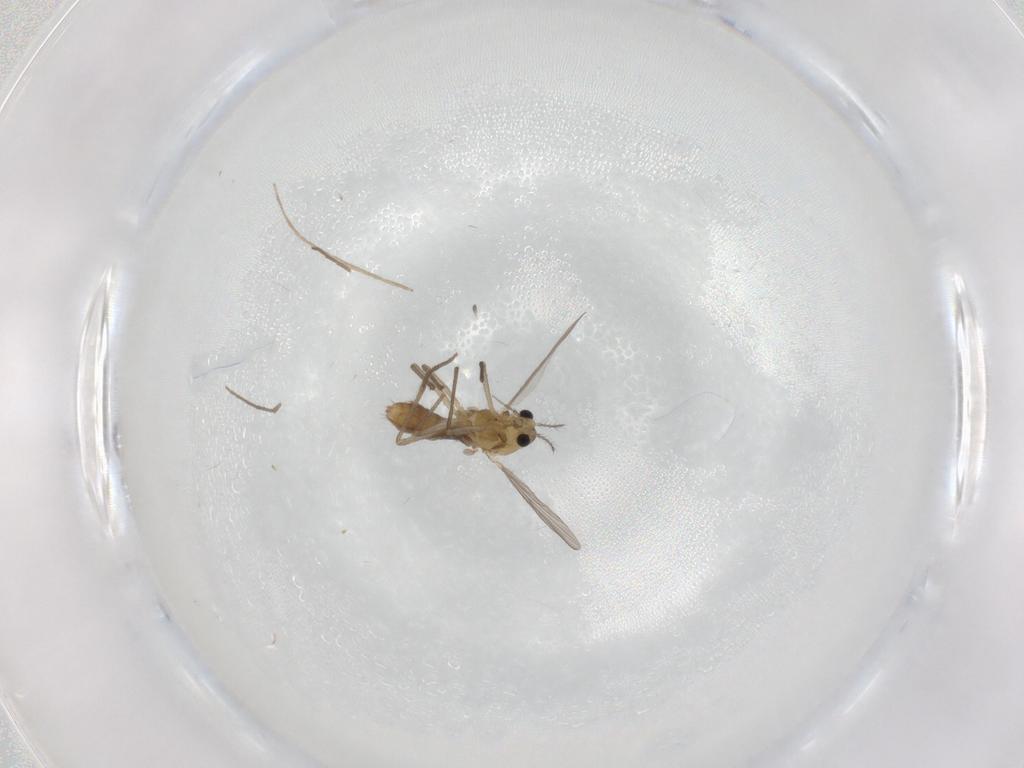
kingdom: Animalia
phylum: Arthropoda
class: Insecta
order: Diptera
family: Chironomidae
